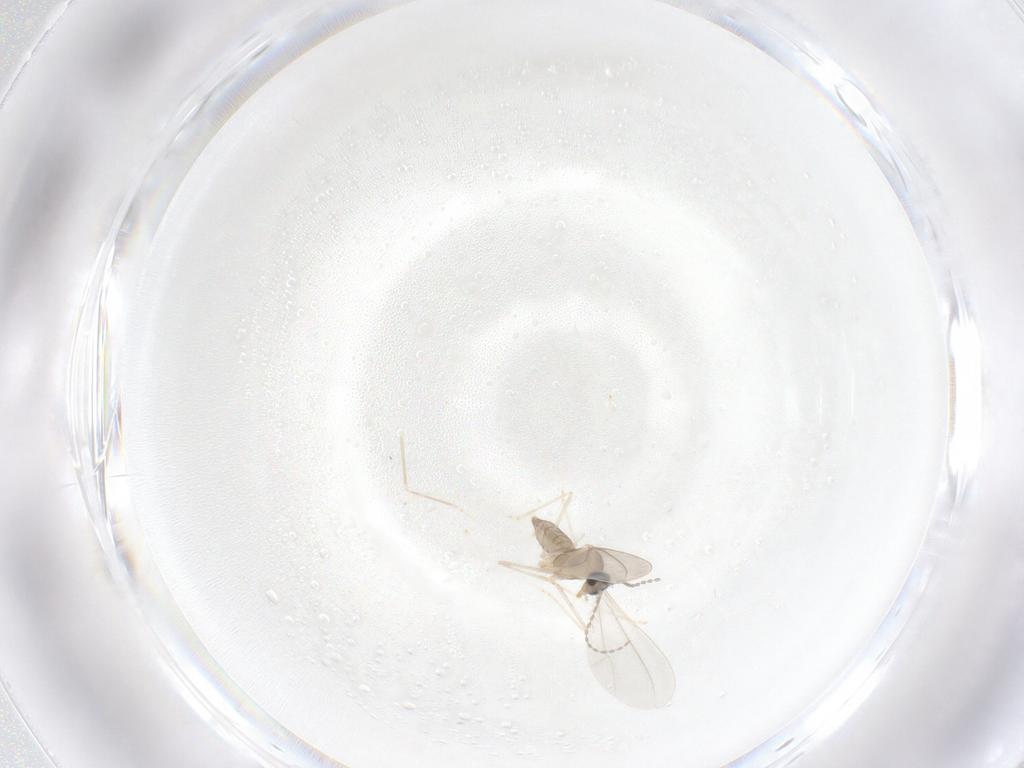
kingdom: Animalia
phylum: Arthropoda
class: Insecta
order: Diptera
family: Cecidomyiidae
